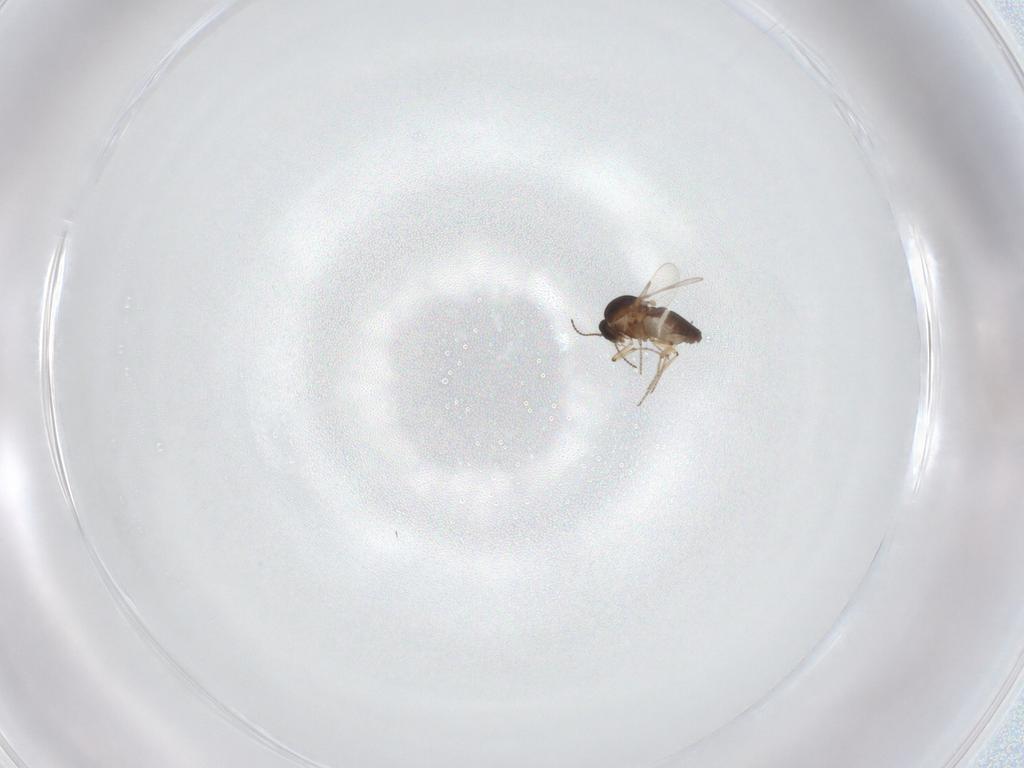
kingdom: Animalia
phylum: Arthropoda
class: Insecta
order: Diptera
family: Ceratopogonidae
